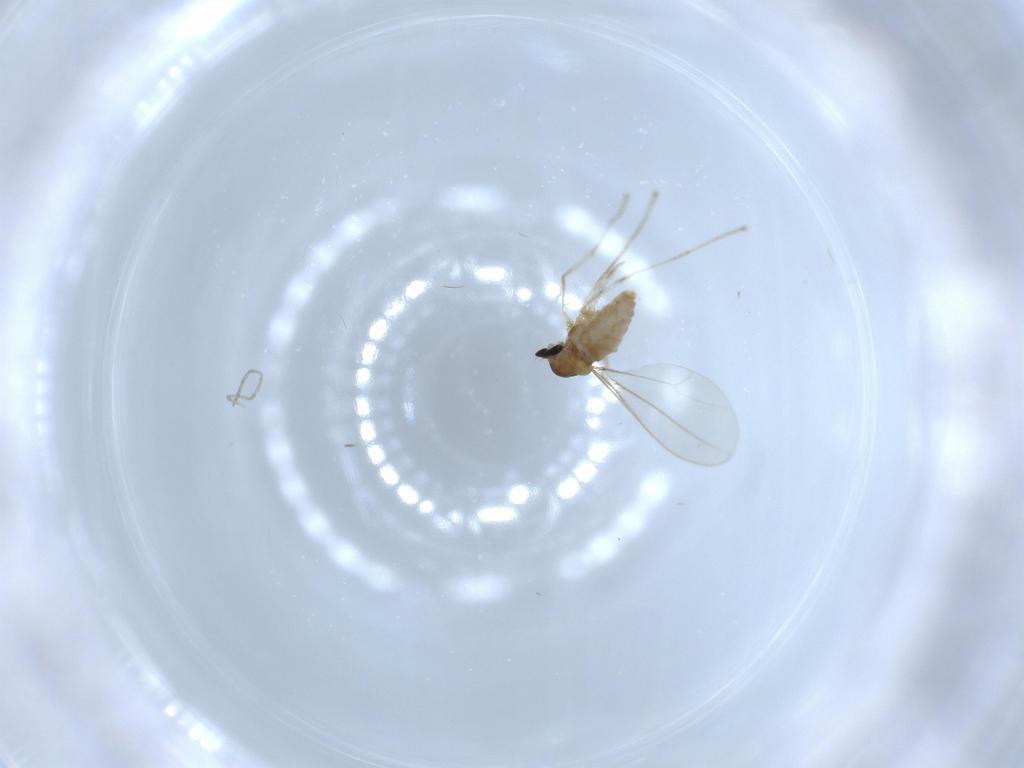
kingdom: Animalia
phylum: Arthropoda
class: Insecta
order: Diptera
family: Cecidomyiidae
